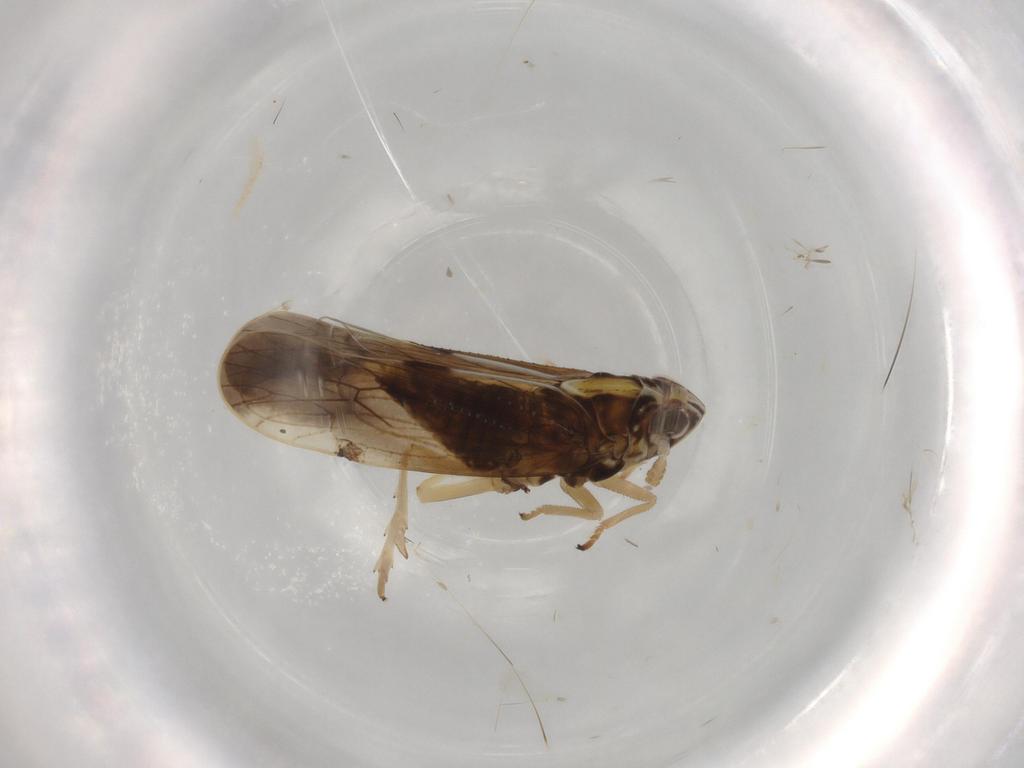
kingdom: Animalia
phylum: Arthropoda
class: Insecta
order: Hemiptera
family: Delphacidae
